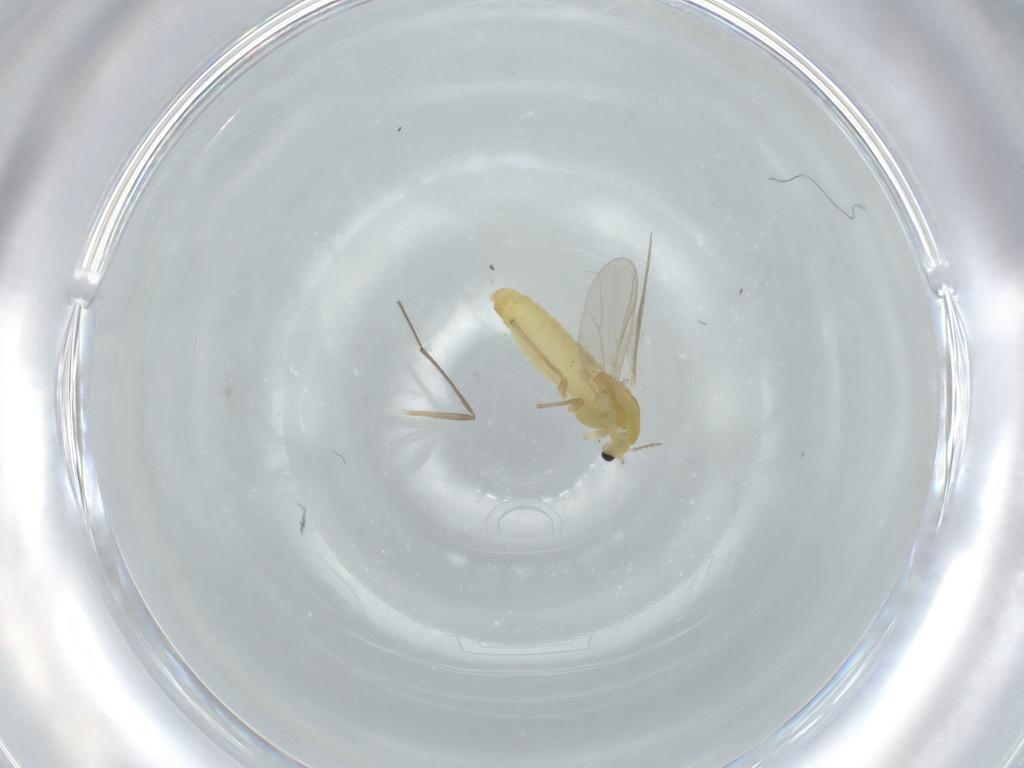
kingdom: Animalia
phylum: Arthropoda
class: Insecta
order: Diptera
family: Chironomidae
